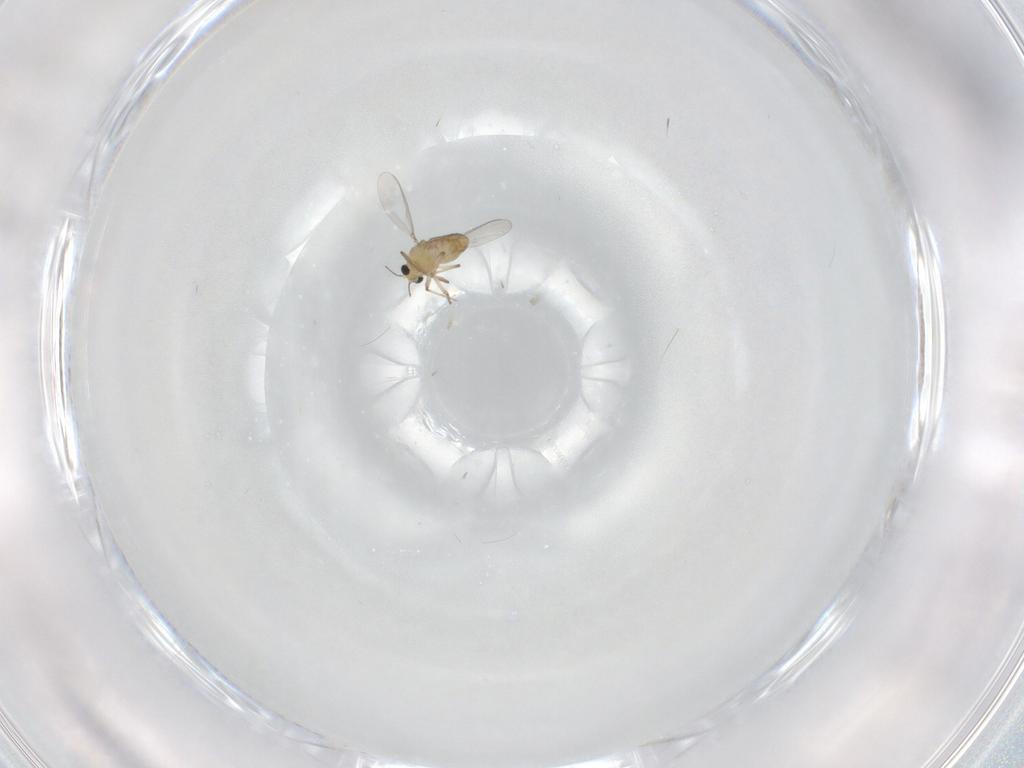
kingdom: Animalia
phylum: Arthropoda
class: Insecta
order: Diptera
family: Chironomidae
